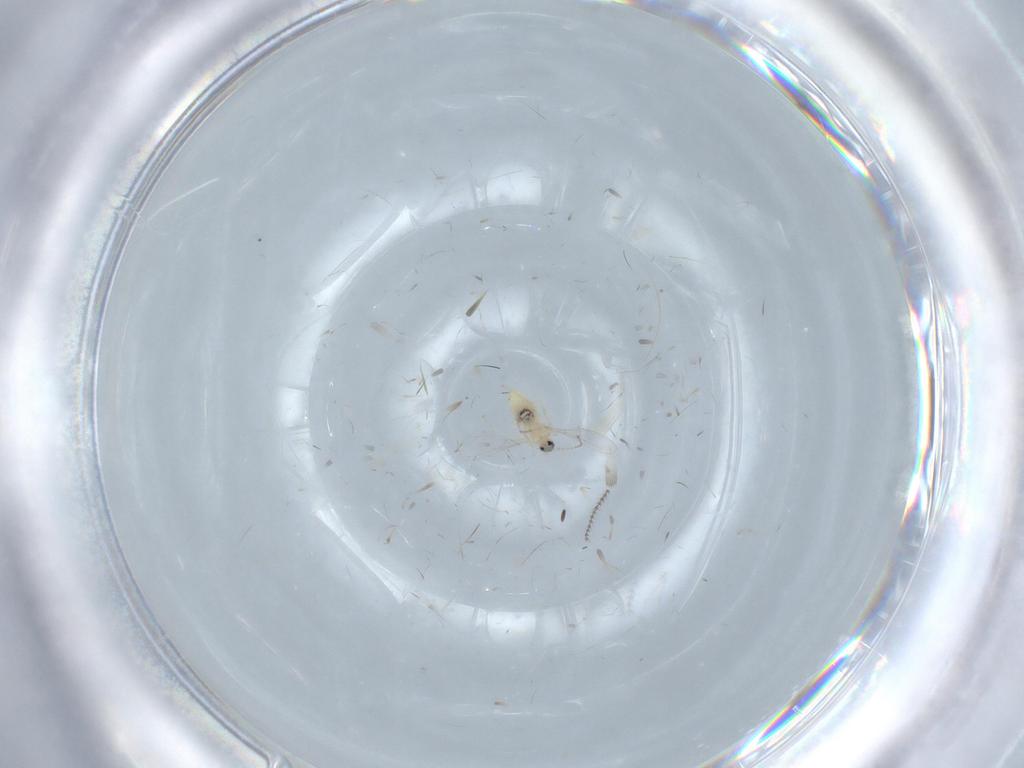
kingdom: Animalia
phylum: Arthropoda
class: Insecta
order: Diptera
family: Cecidomyiidae
